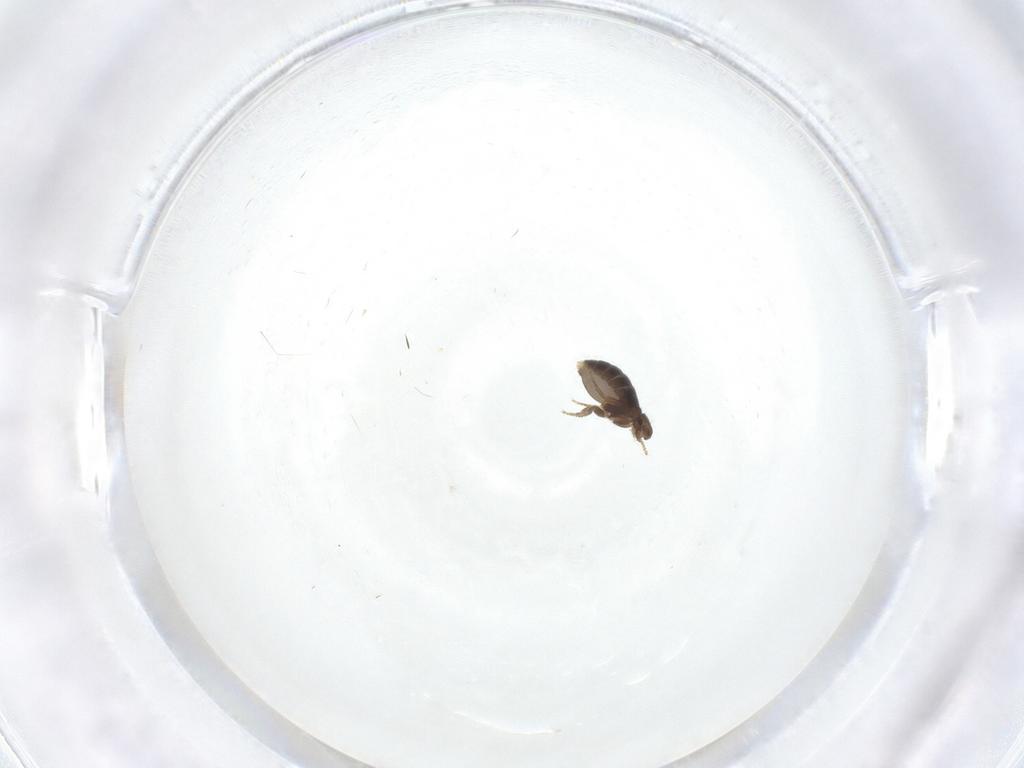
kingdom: Animalia
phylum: Arthropoda
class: Insecta
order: Diptera
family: Phoridae
